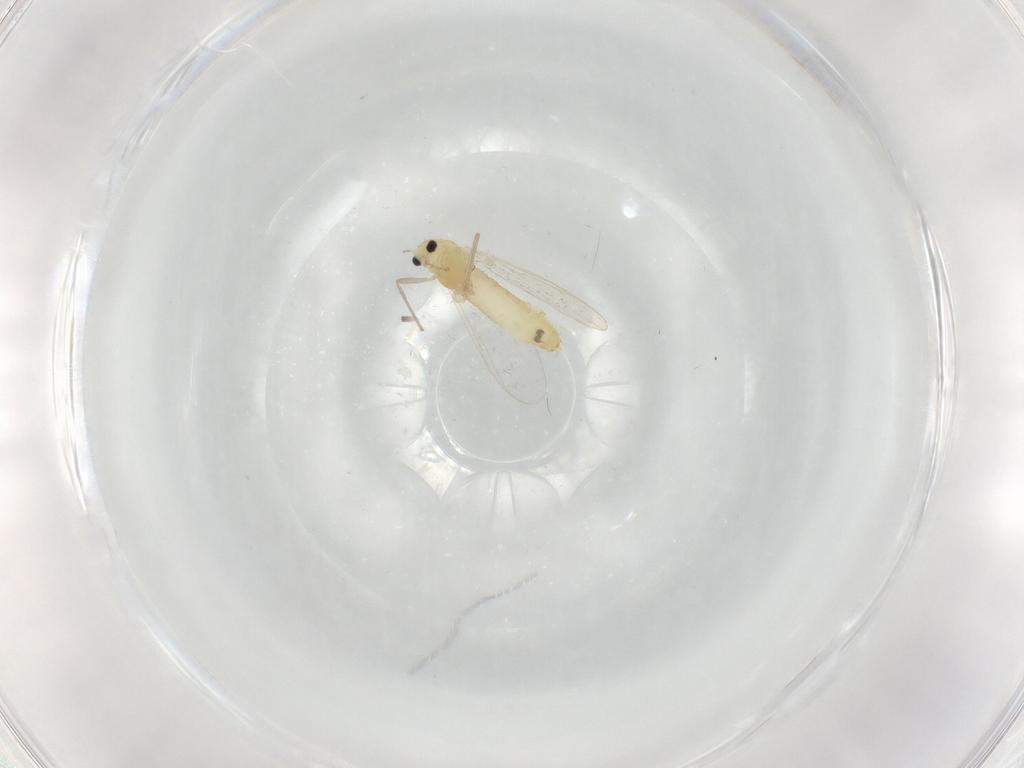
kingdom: Animalia
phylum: Arthropoda
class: Insecta
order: Diptera
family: Chironomidae
